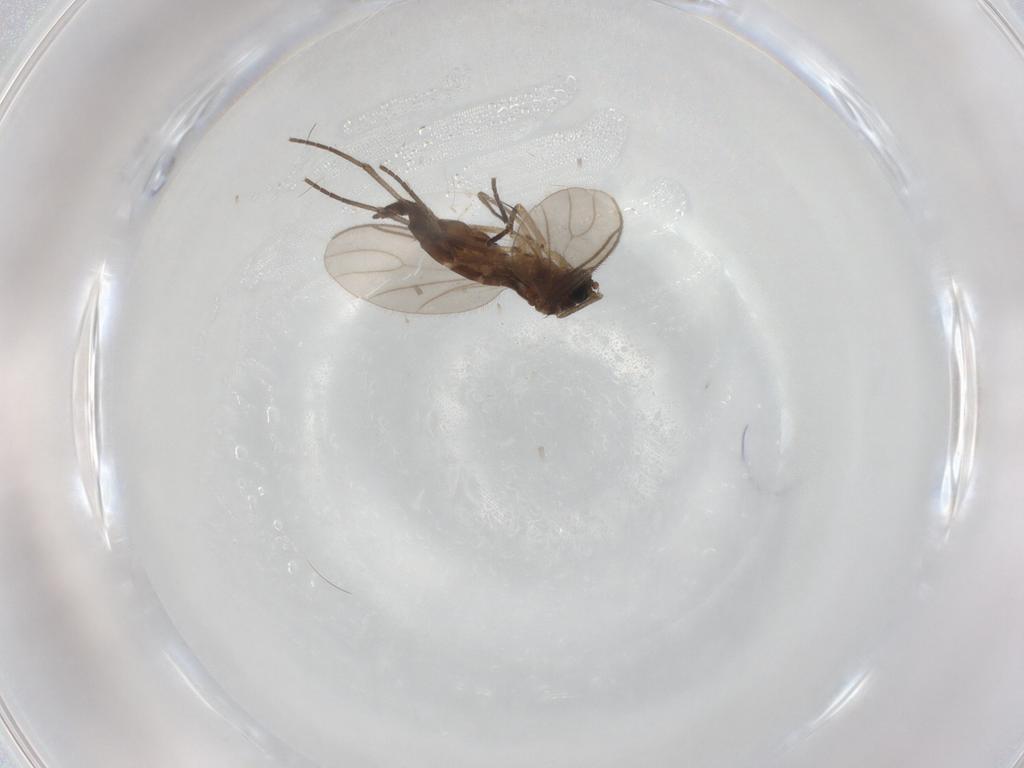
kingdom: Animalia
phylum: Arthropoda
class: Insecta
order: Diptera
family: Sciaridae
